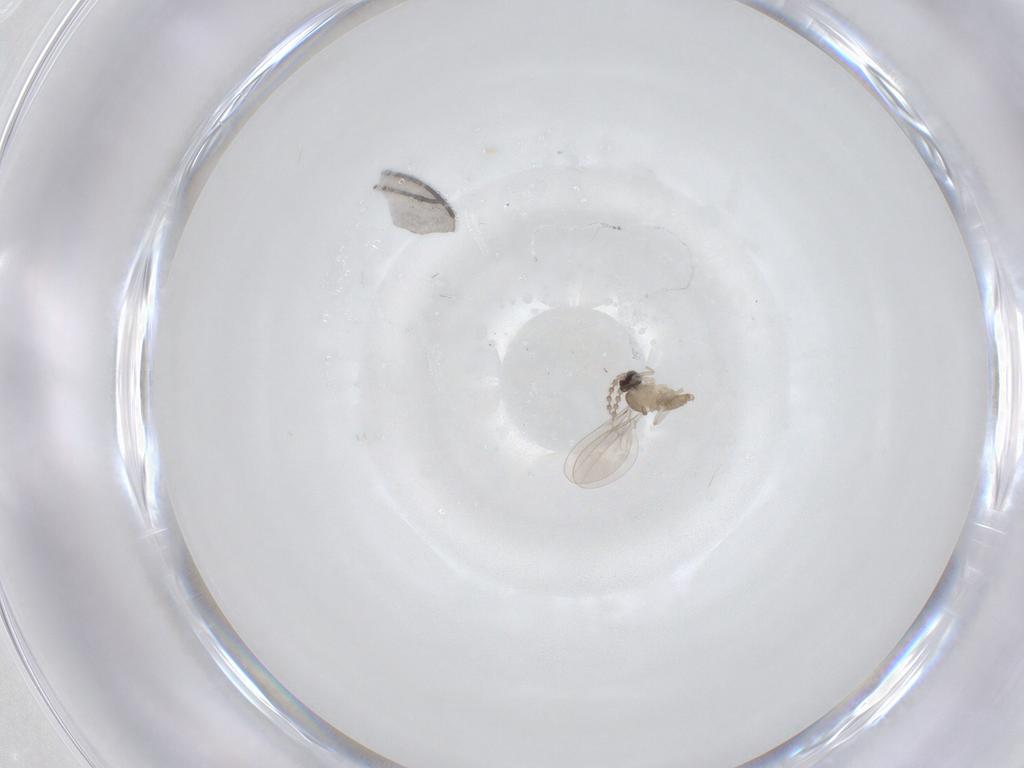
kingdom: Animalia
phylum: Arthropoda
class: Insecta
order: Diptera
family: Cecidomyiidae
